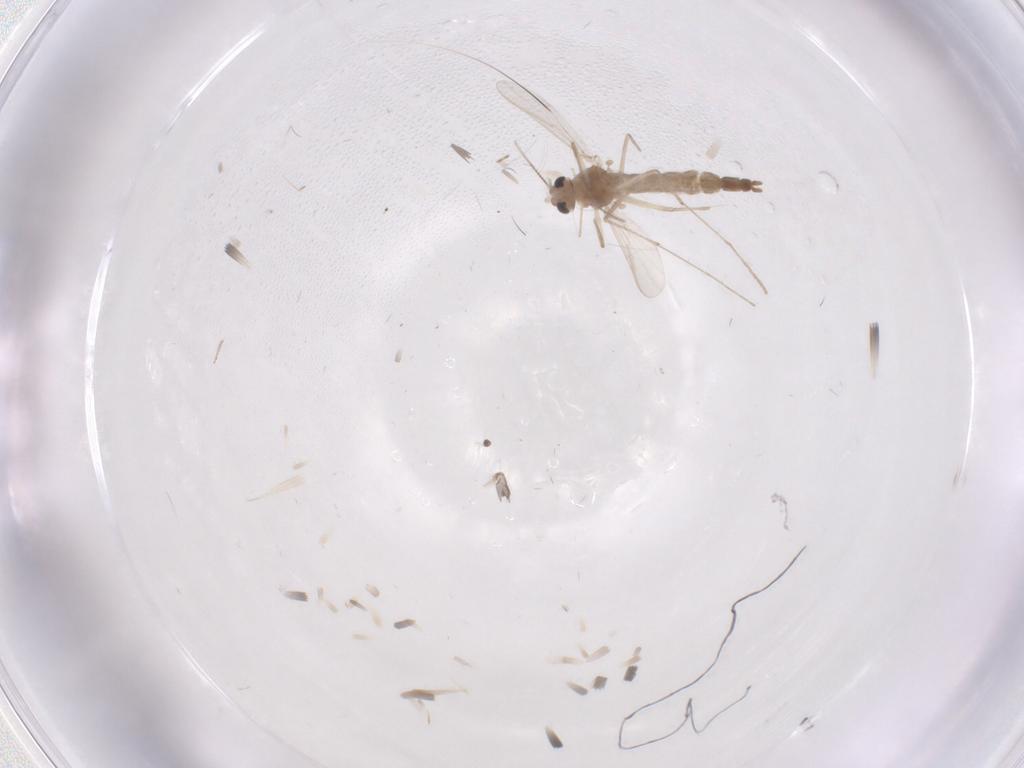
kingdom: Animalia
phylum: Arthropoda
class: Insecta
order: Diptera
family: Chironomidae
